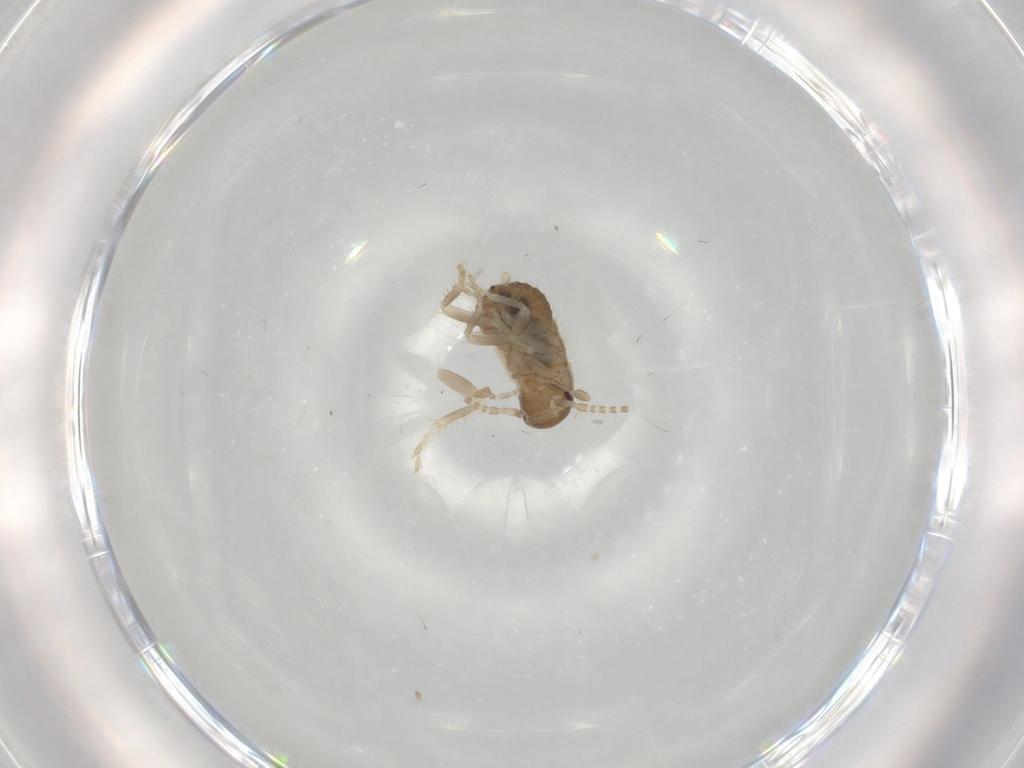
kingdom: Animalia
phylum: Arthropoda
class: Insecta
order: Blattodea
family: Ectobiidae
